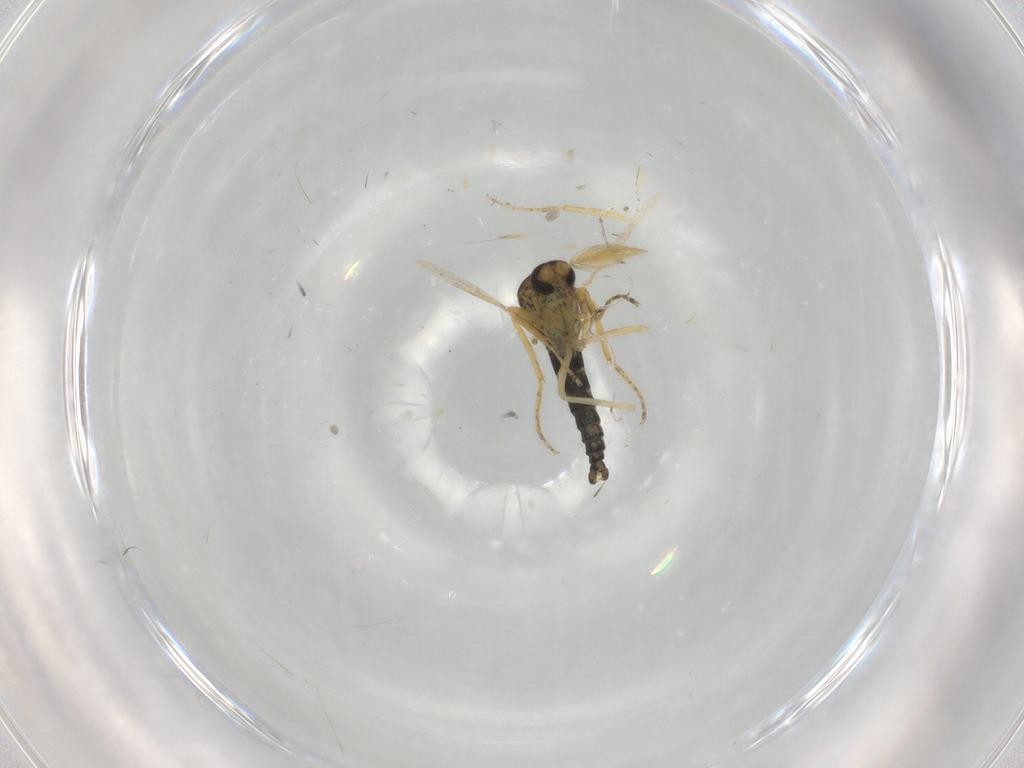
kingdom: Animalia
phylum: Arthropoda
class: Insecta
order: Diptera
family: Ceratopogonidae
